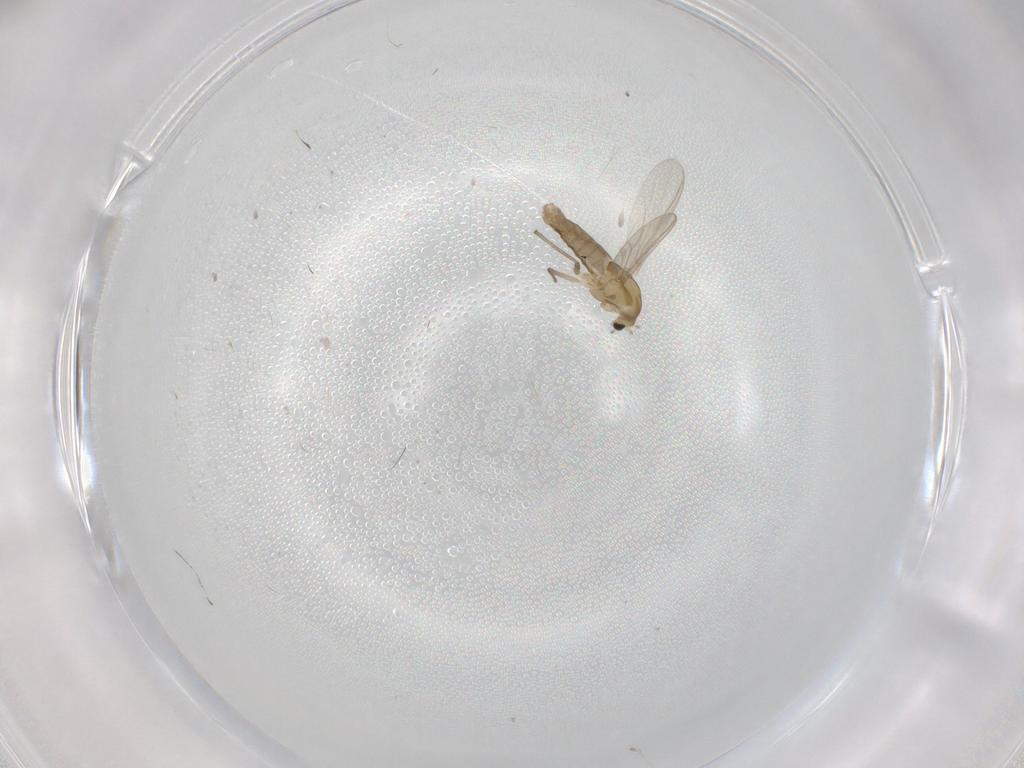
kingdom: Animalia
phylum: Arthropoda
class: Insecta
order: Diptera
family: Chironomidae
